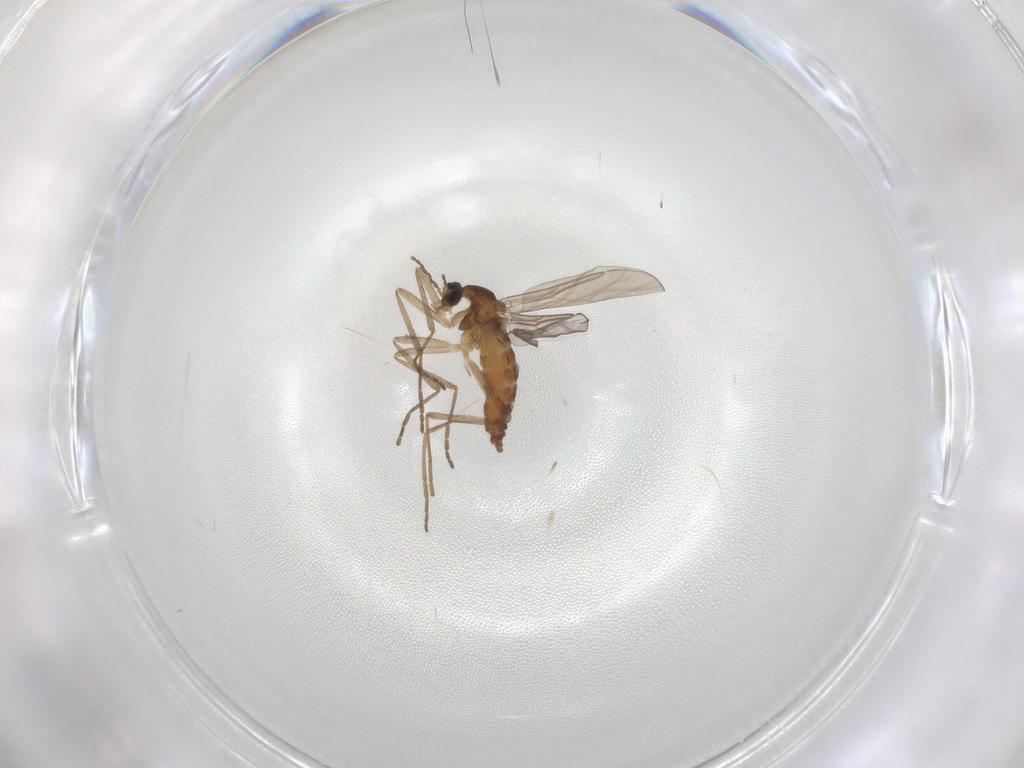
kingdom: Animalia
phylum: Arthropoda
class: Insecta
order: Diptera
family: Cecidomyiidae
